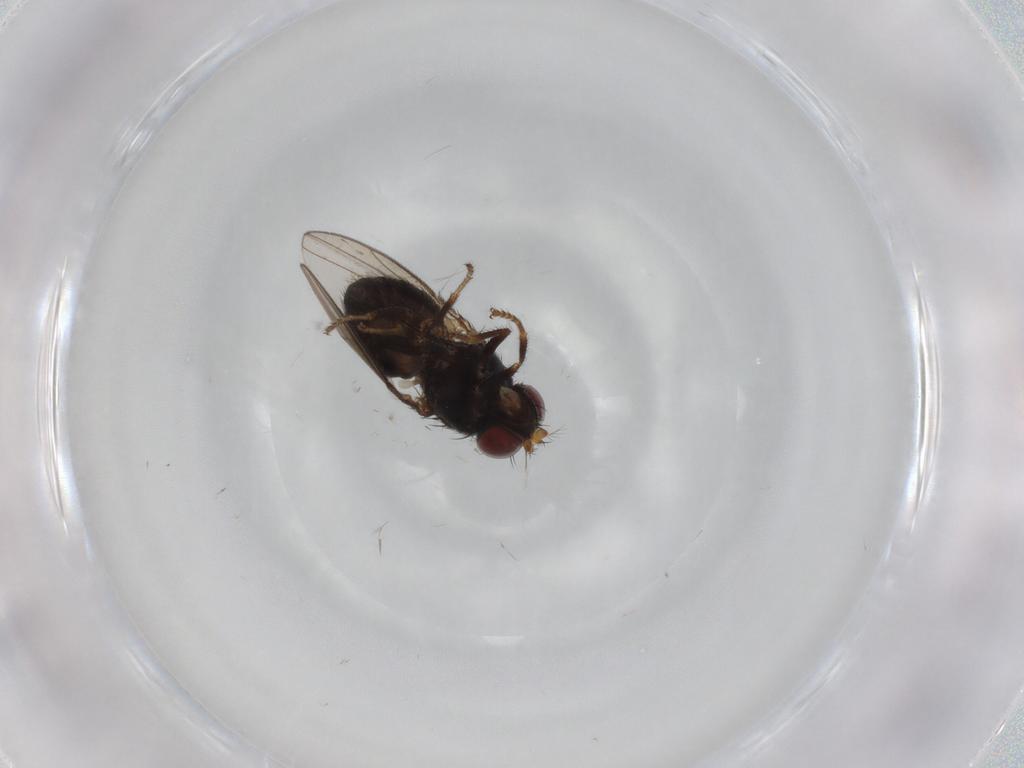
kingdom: Animalia
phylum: Arthropoda
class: Insecta
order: Diptera
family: Ephydridae
